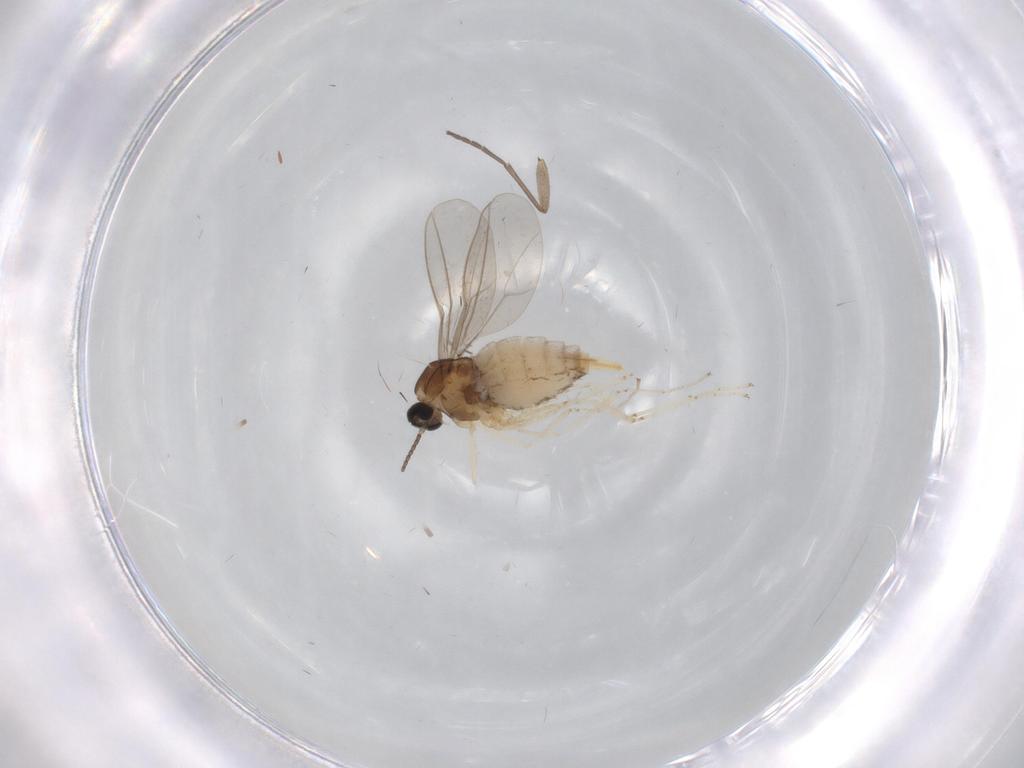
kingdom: Animalia
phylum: Arthropoda
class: Insecta
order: Diptera
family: Cecidomyiidae
